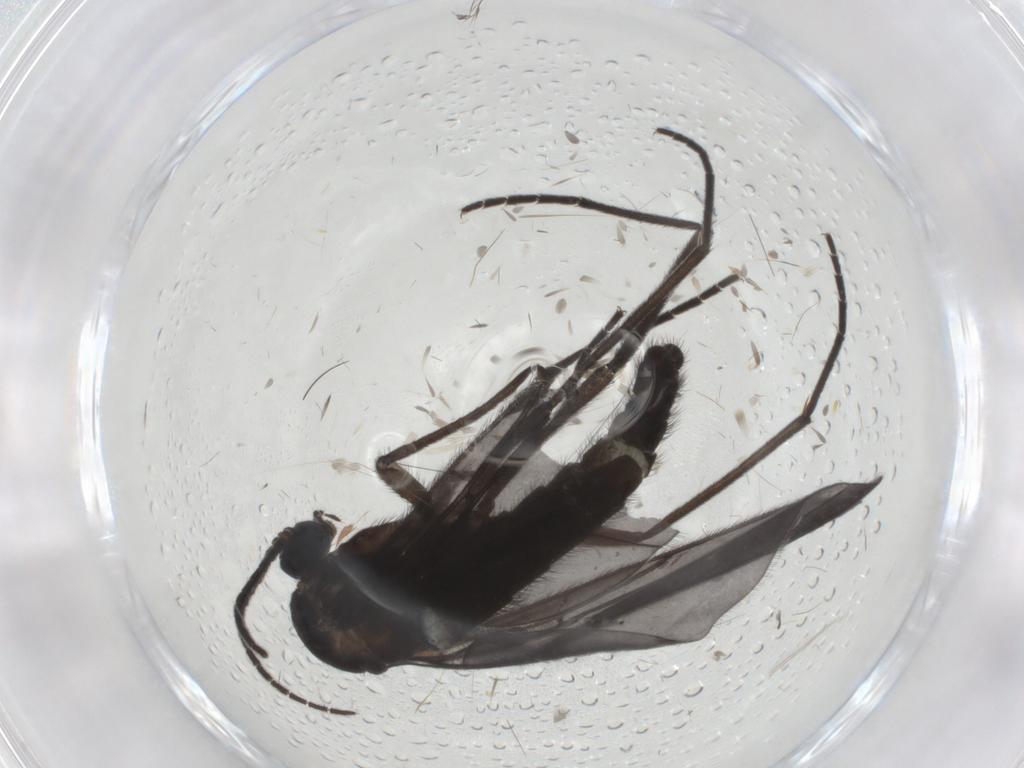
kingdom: Animalia
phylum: Arthropoda
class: Insecta
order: Diptera
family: Sciaridae
